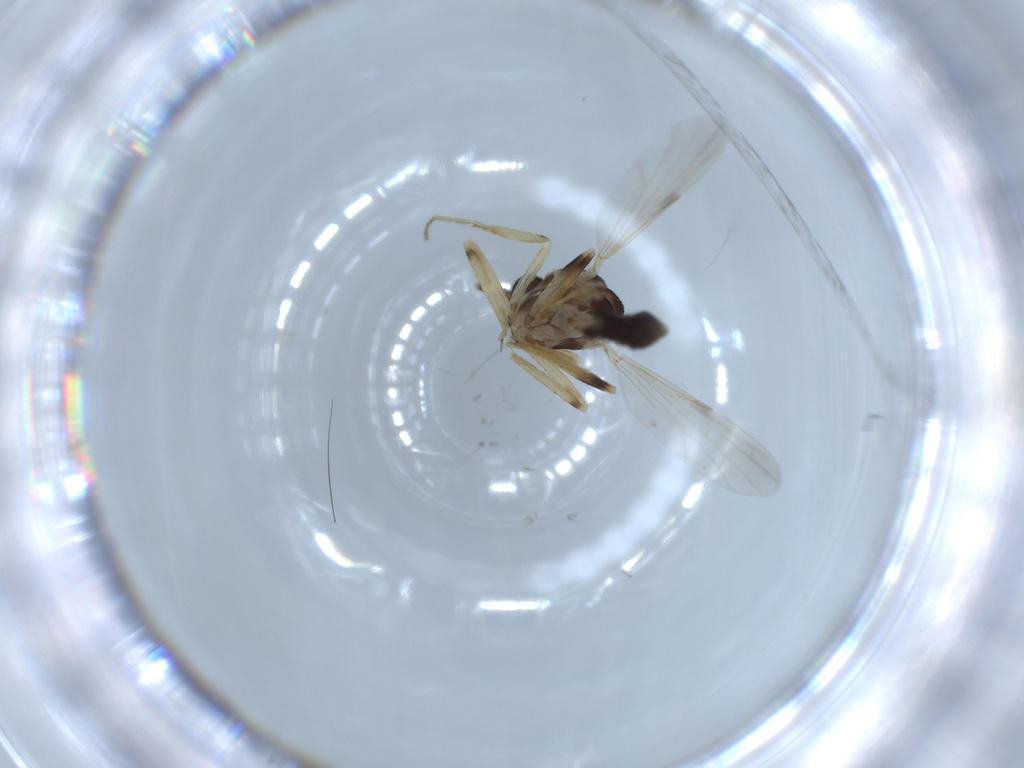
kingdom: Animalia
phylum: Arthropoda
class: Insecta
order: Diptera
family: Ceratopogonidae
